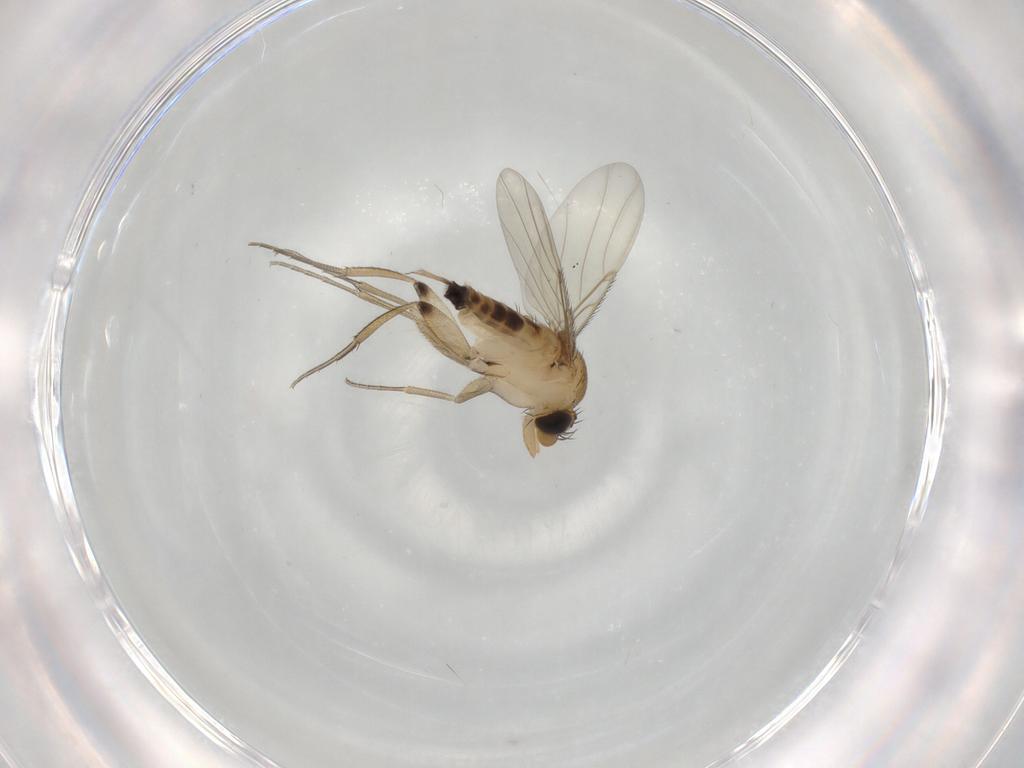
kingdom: Animalia
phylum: Arthropoda
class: Insecta
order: Diptera
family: Phoridae
